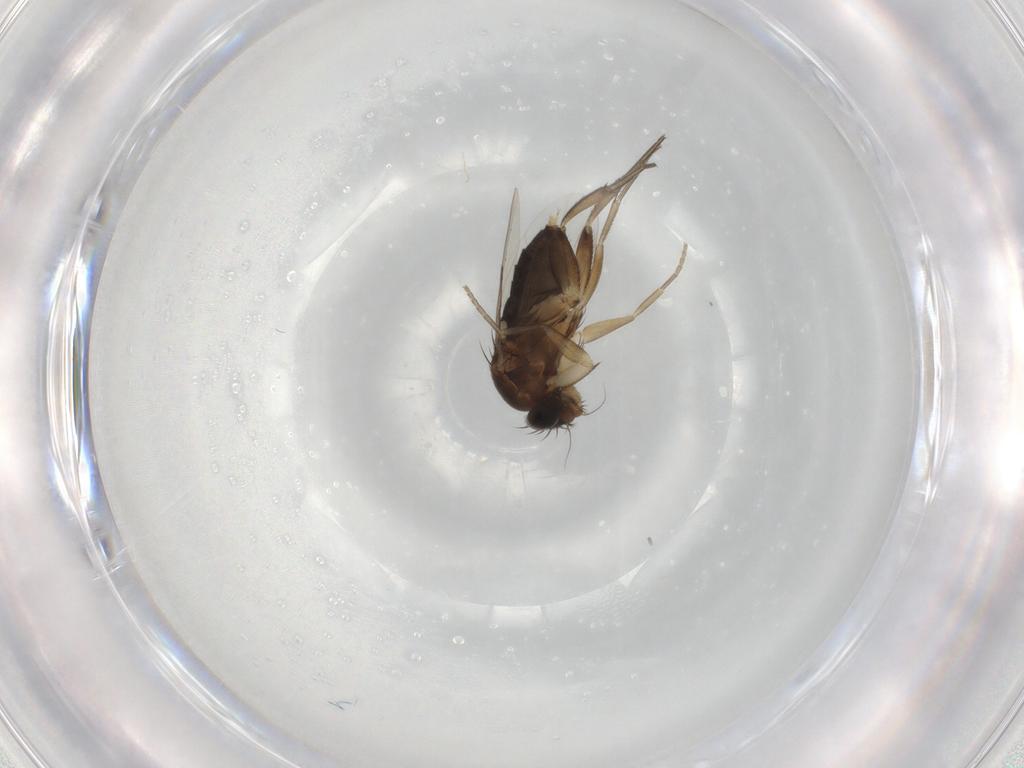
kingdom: Animalia
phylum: Arthropoda
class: Insecta
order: Diptera
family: Phoridae
